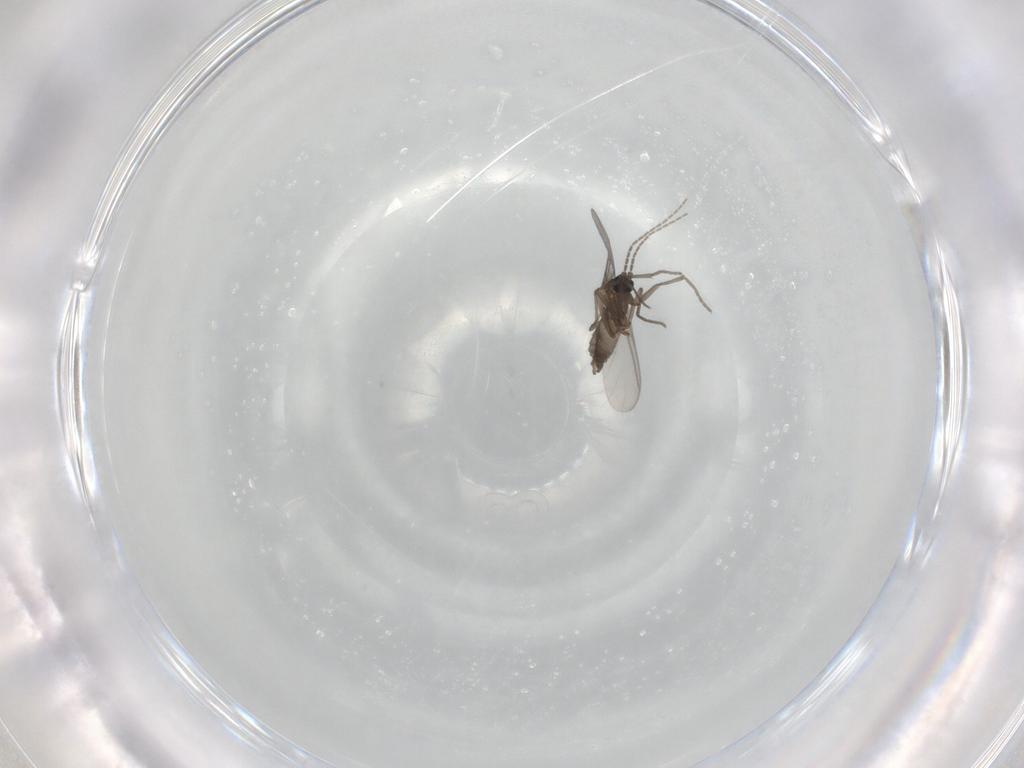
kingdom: Animalia
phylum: Arthropoda
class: Insecta
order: Diptera
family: Sciaridae
